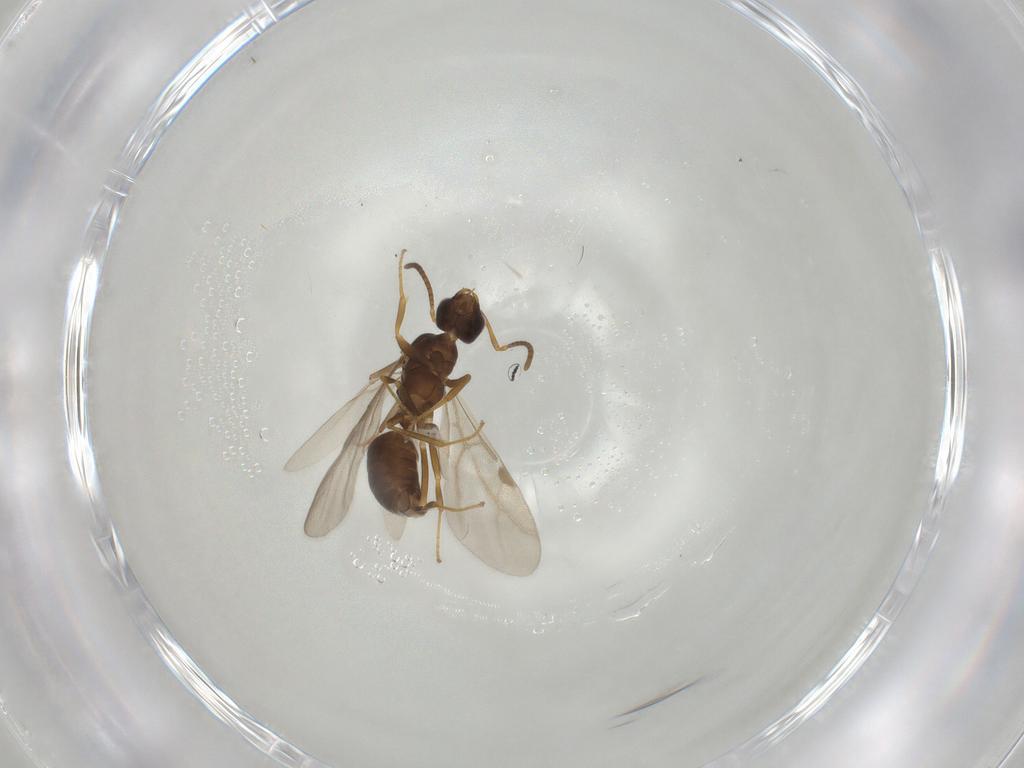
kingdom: Animalia
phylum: Arthropoda
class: Insecta
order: Hymenoptera
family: Formicidae
